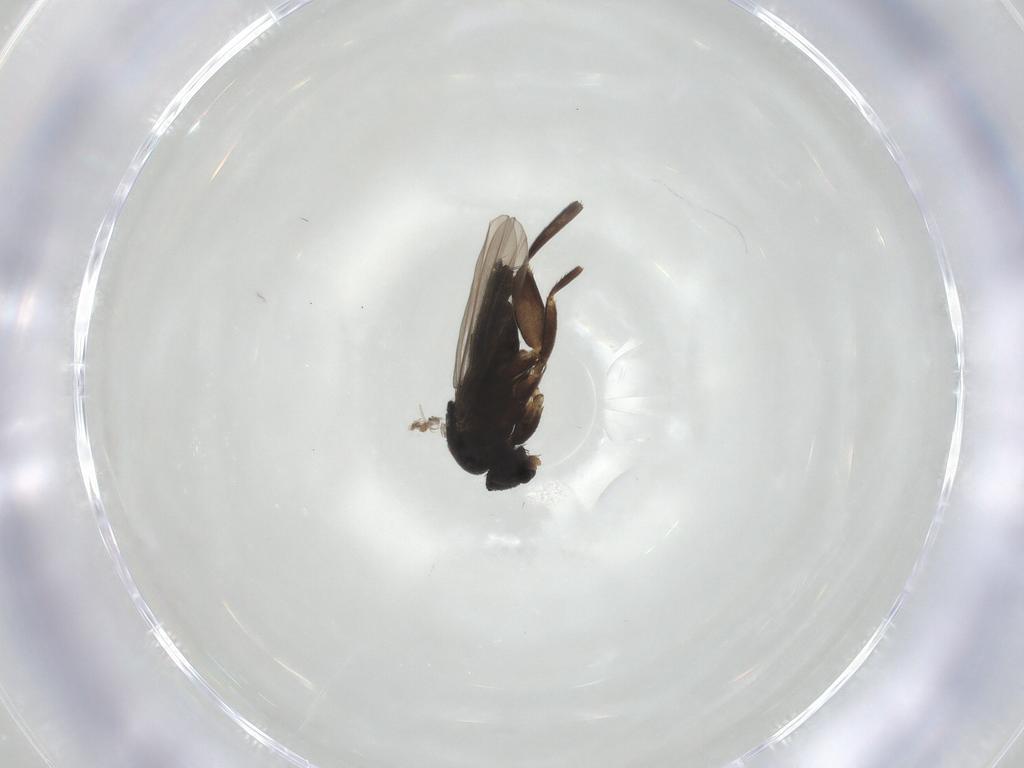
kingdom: Animalia
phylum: Arthropoda
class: Insecta
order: Diptera
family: Phoridae
